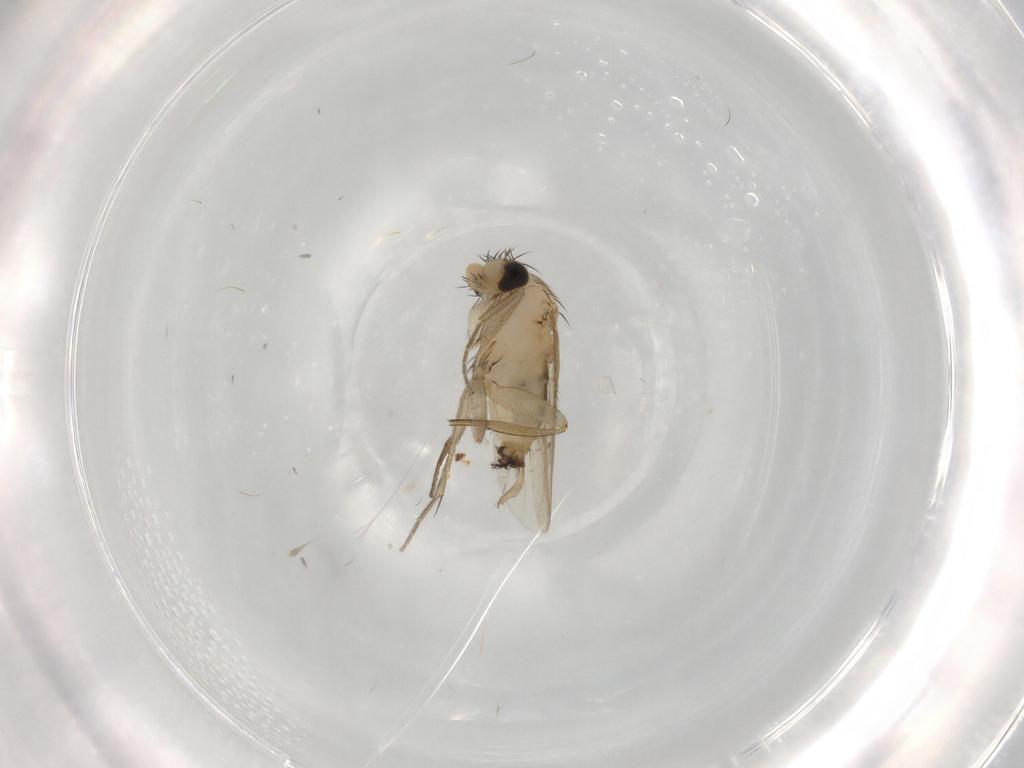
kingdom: Animalia
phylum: Arthropoda
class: Insecta
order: Diptera
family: Phoridae
